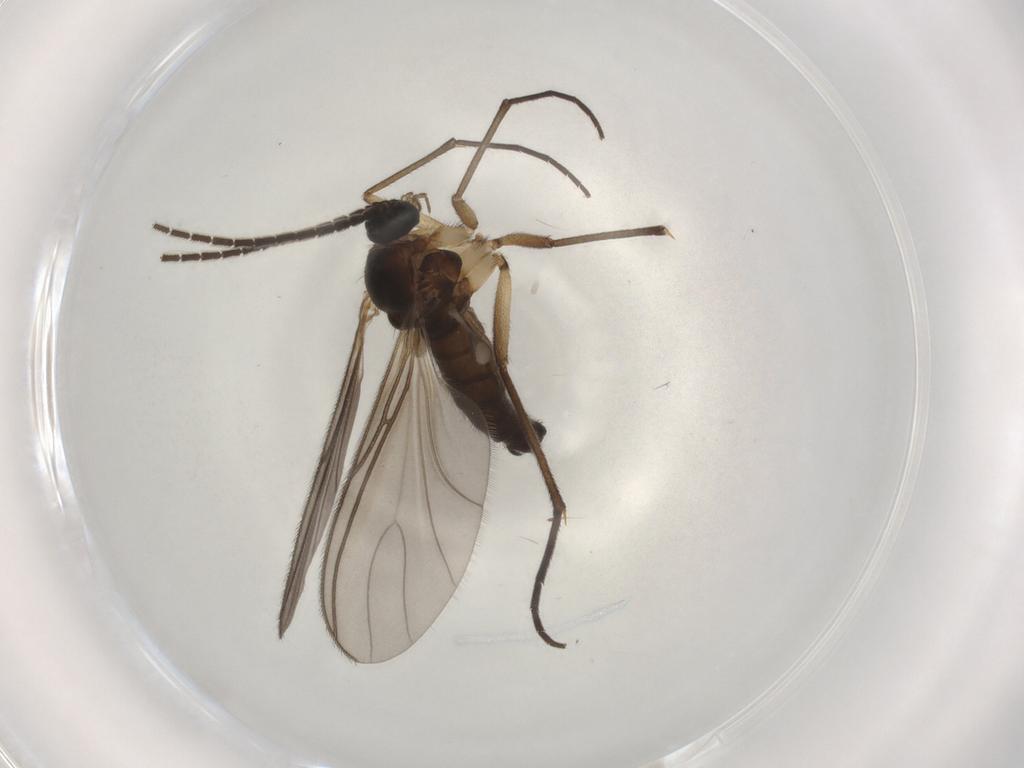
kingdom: Animalia
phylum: Arthropoda
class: Insecta
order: Diptera
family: Sciaridae
